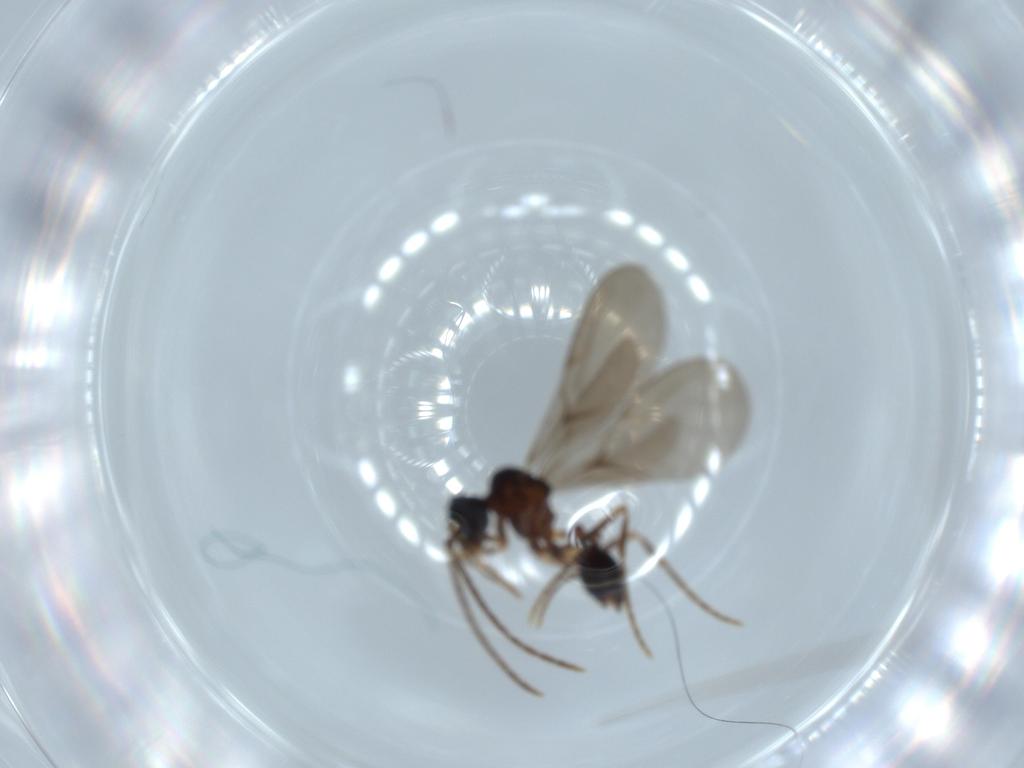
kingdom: Animalia
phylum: Arthropoda
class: Insecta
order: Hymenoptera
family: Formicidae
